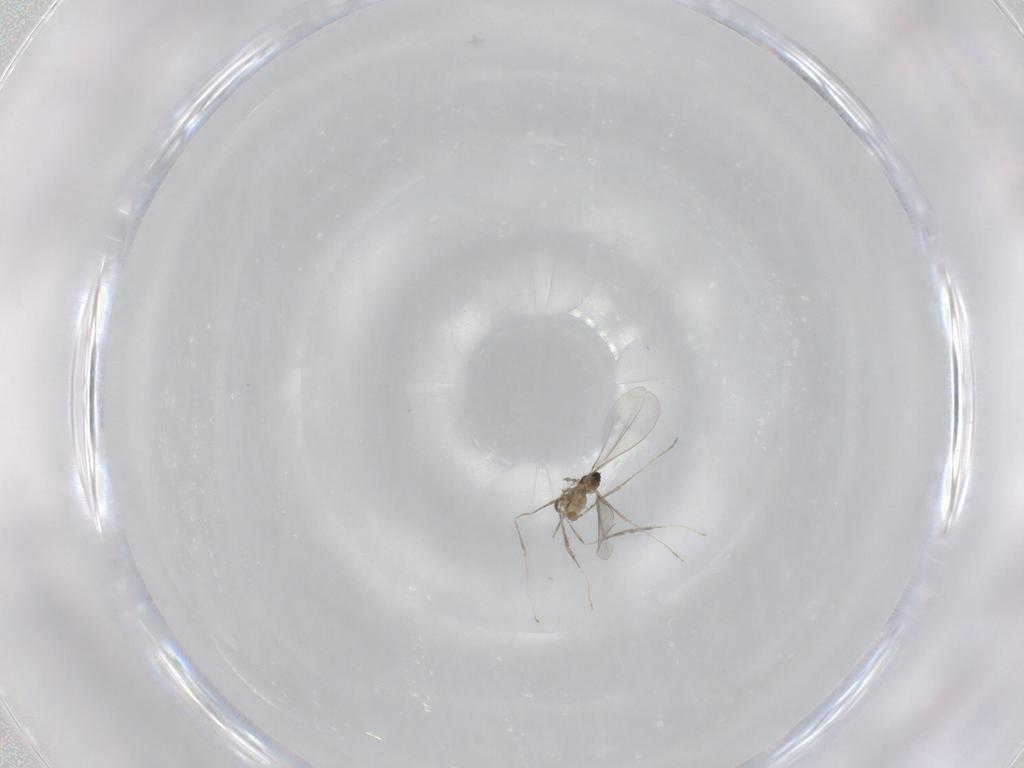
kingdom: Animalia
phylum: Arthropoda
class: Insecta
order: Diptera
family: Cecidomyiidae
